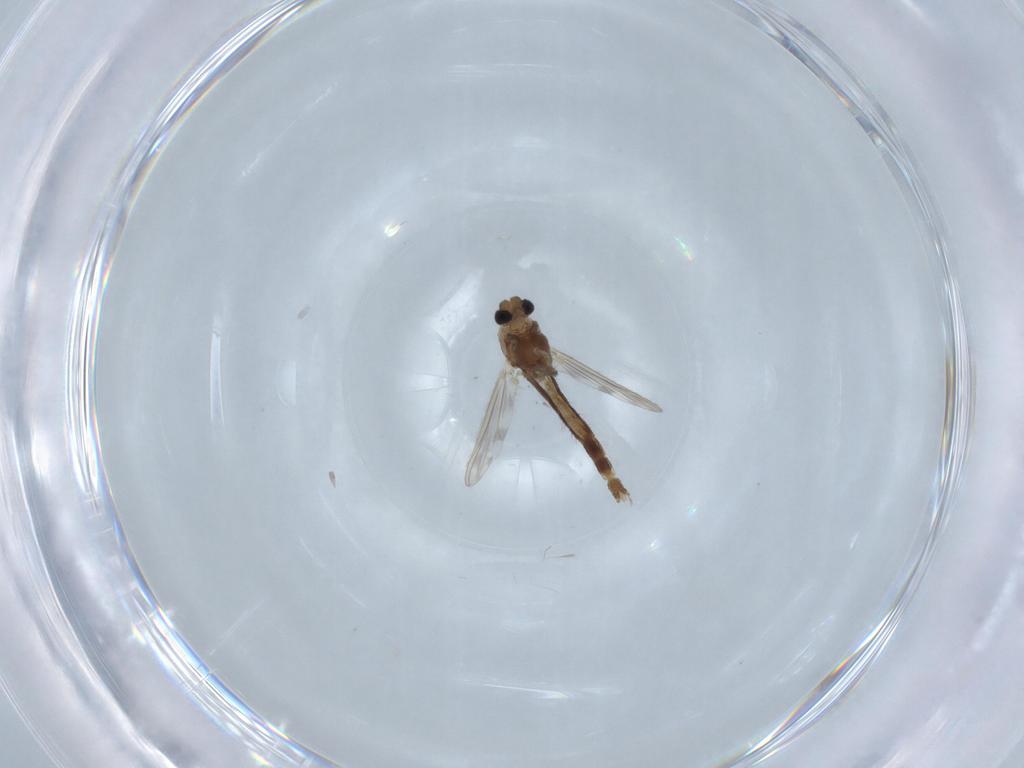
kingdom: Animalia
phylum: Arthropoda
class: Insecta
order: Diptera
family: Chironomidae
